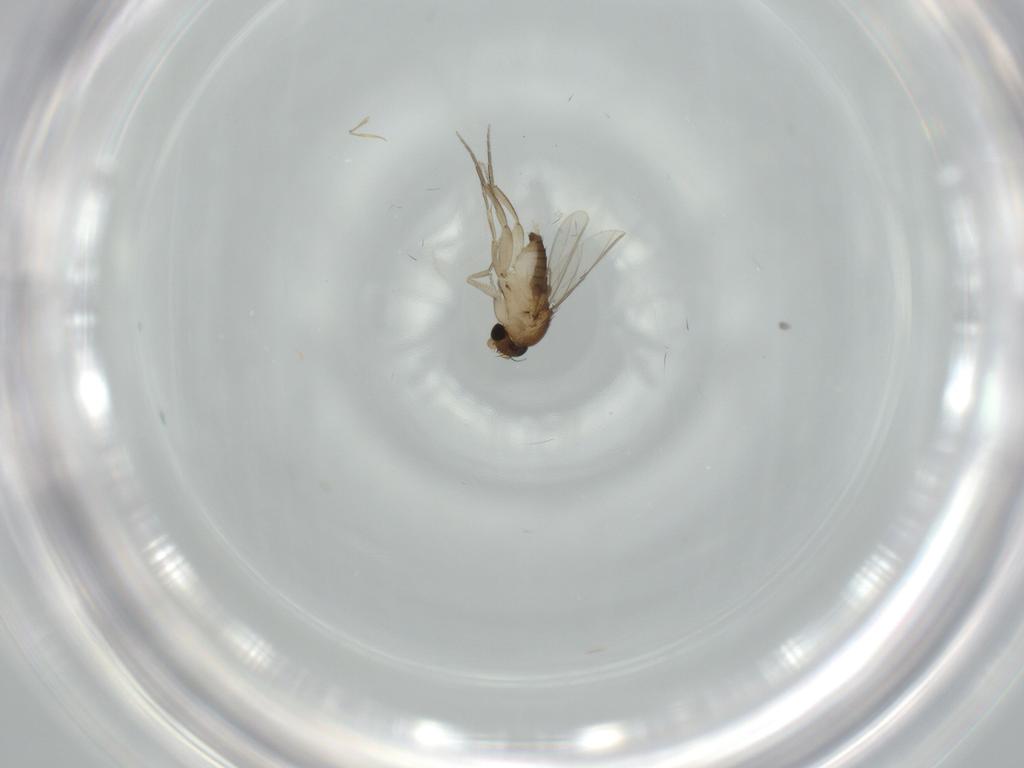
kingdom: Animalia
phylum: Arthropoda
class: Insecta
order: Diptera
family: Phoridae
